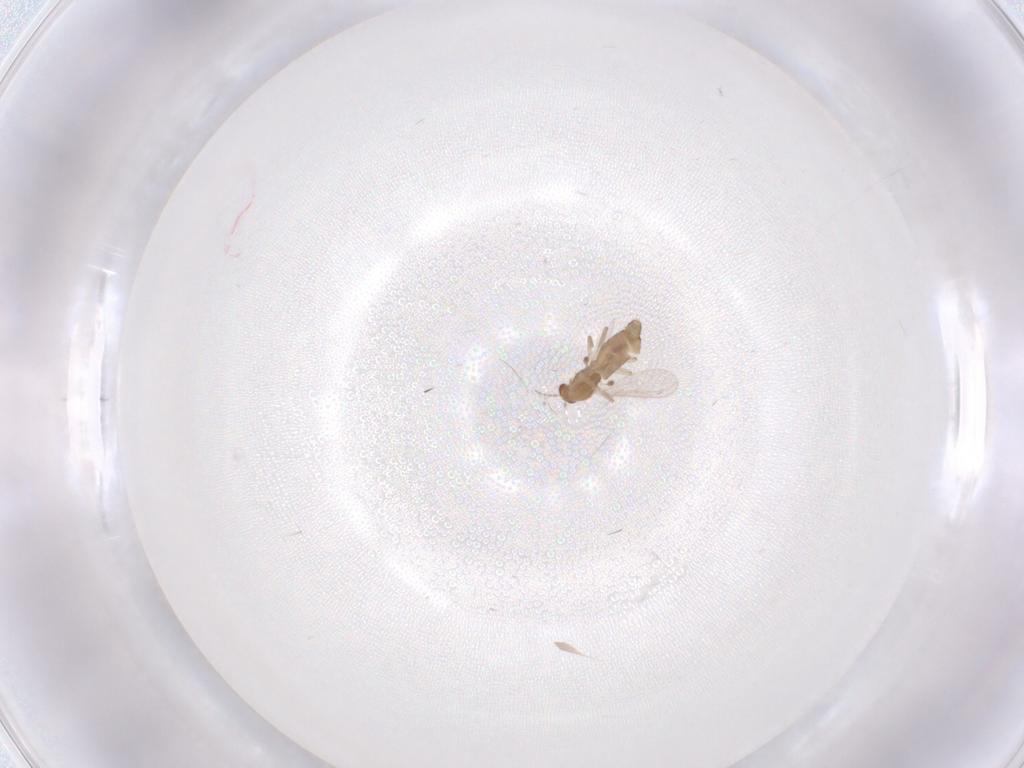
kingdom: Animalia
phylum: Arthropoda
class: Insecta
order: Diptera
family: Chironomidae
